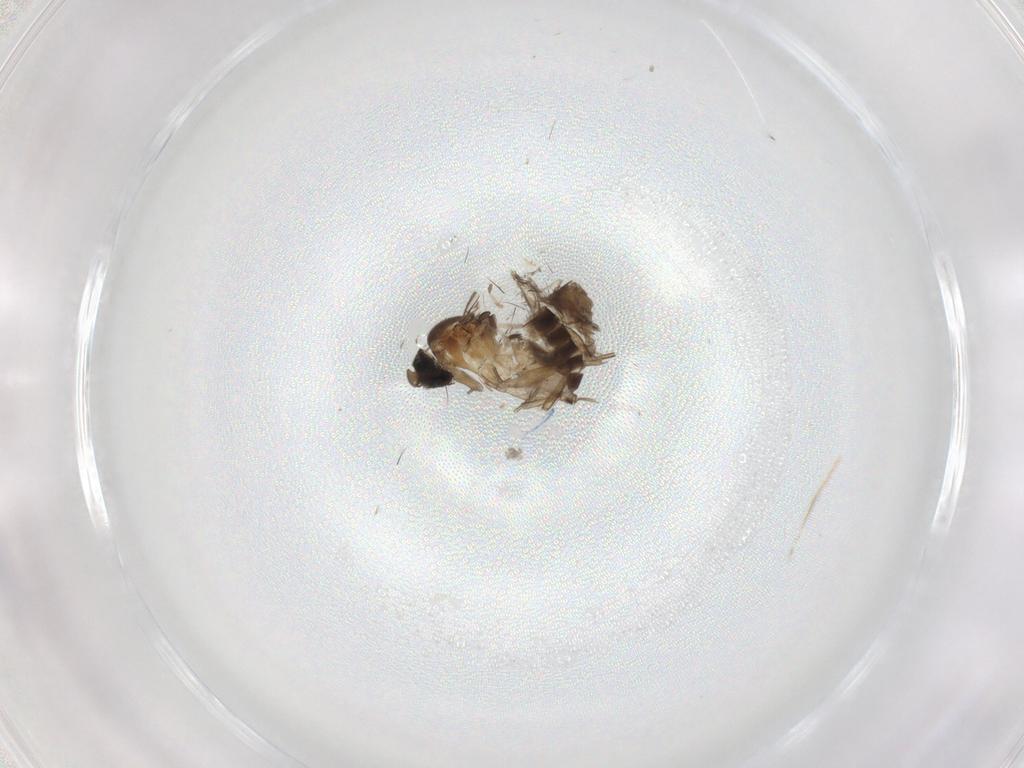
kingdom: Animalia
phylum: Arthropoda
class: Insecta
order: Diptera
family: Psychodidae
